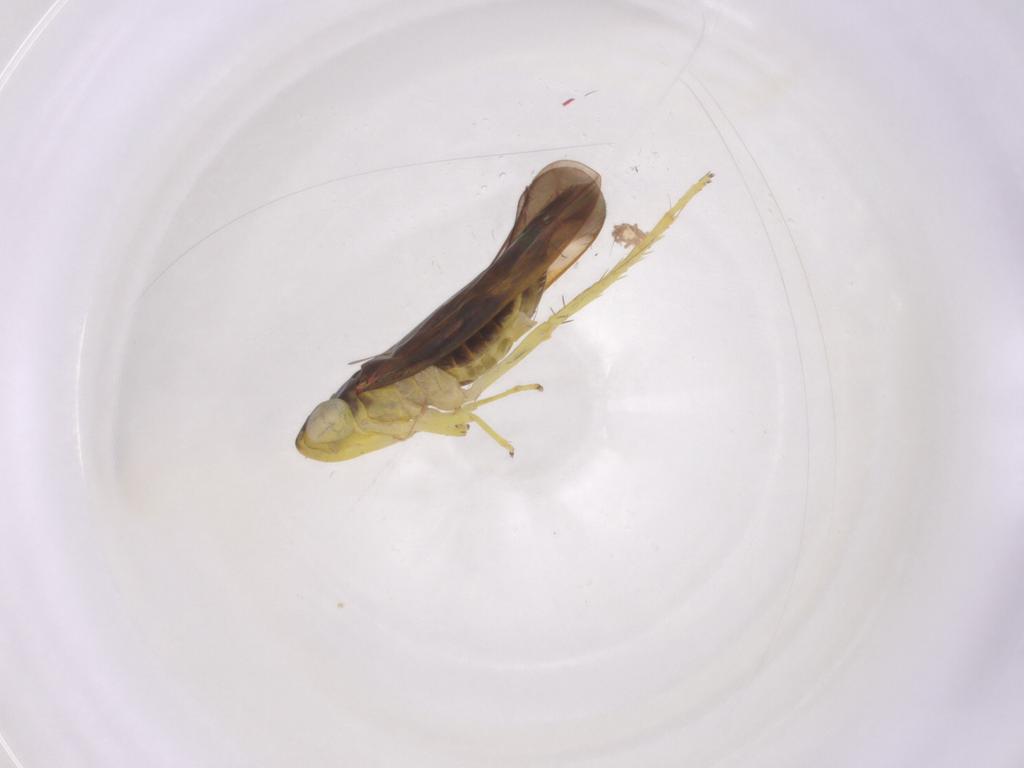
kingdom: Animalia
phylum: Arthropoda
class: Insecta
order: Hemiptera
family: Cicadellidae
